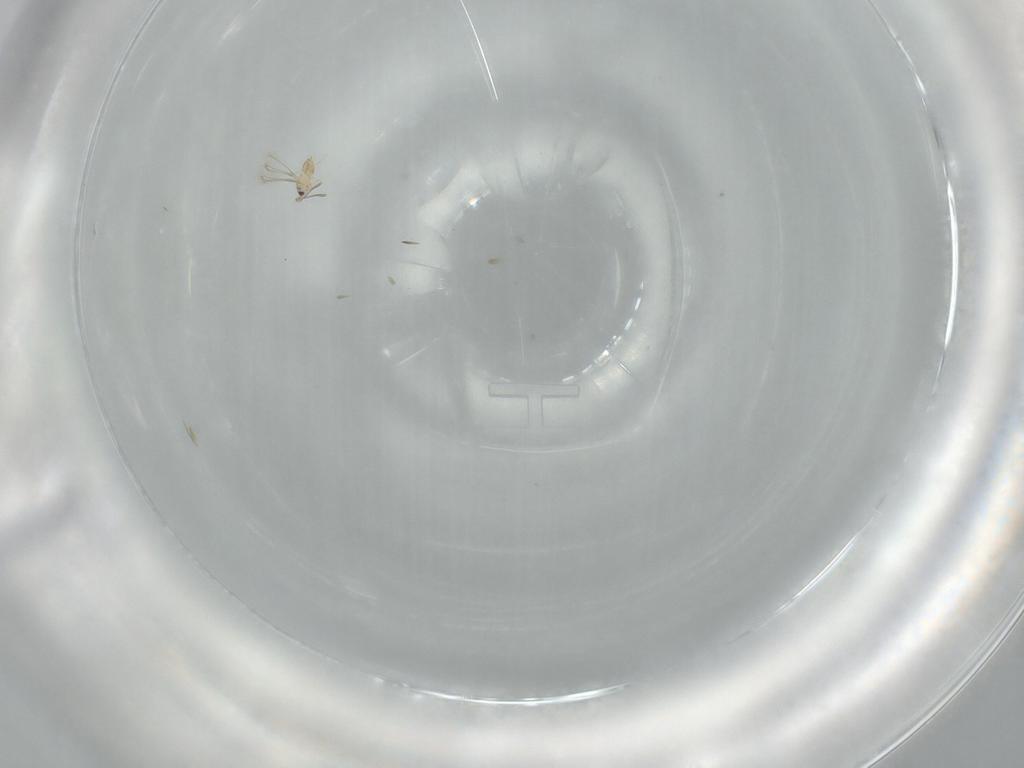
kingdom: Animalia
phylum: Arthropoda
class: Insecta
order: Hymenoptera
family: Mymaridae
